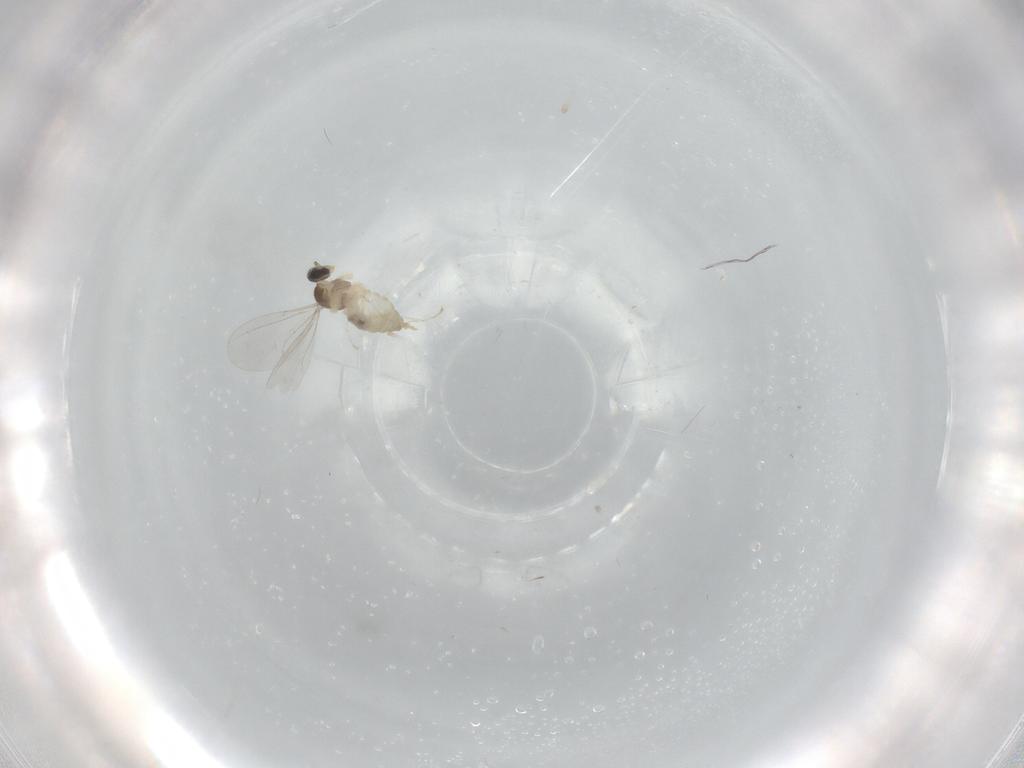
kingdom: Animalia
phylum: Arthropoda
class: Insecta
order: Diptera
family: Cecidomyiidae
